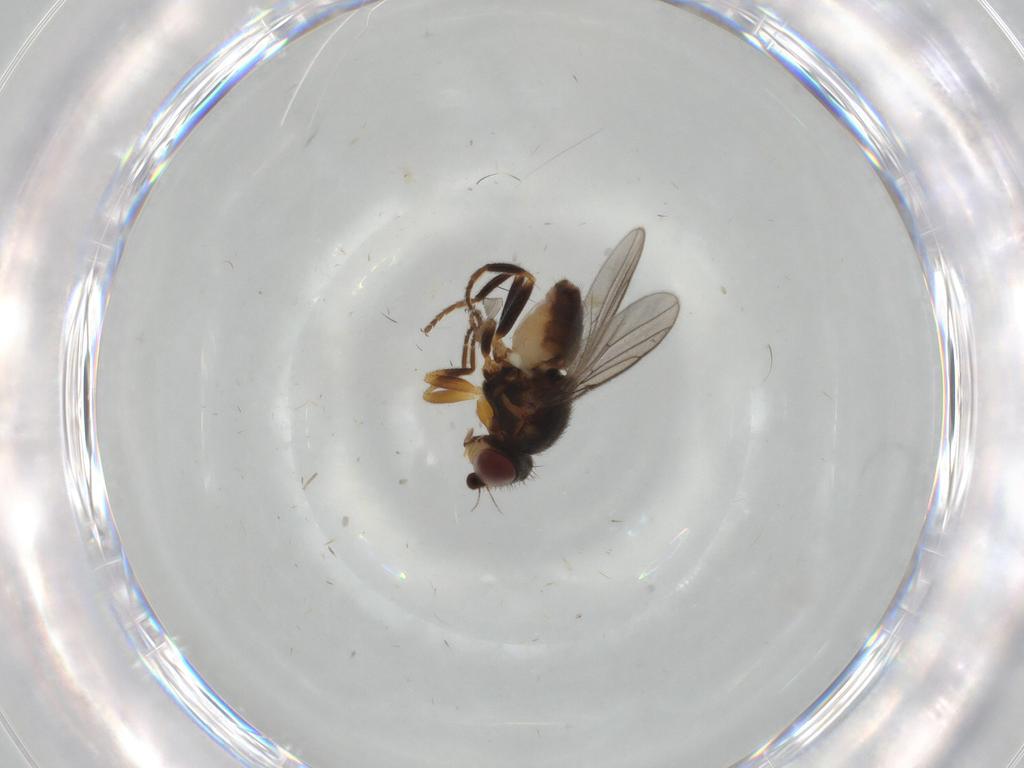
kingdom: Animalia
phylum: Arthropoda
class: Insecta
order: Diptera
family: Chloropidae
